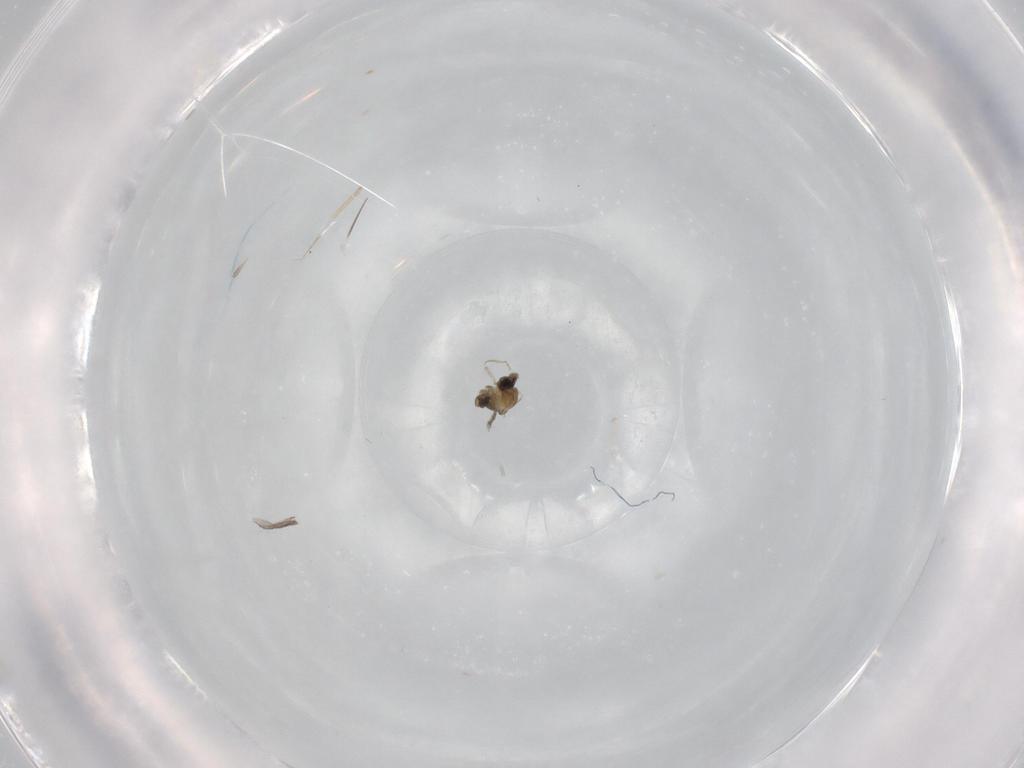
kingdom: Animalia
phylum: Arthropoda
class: Insecta
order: Diptera
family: Cecidomyiidae
